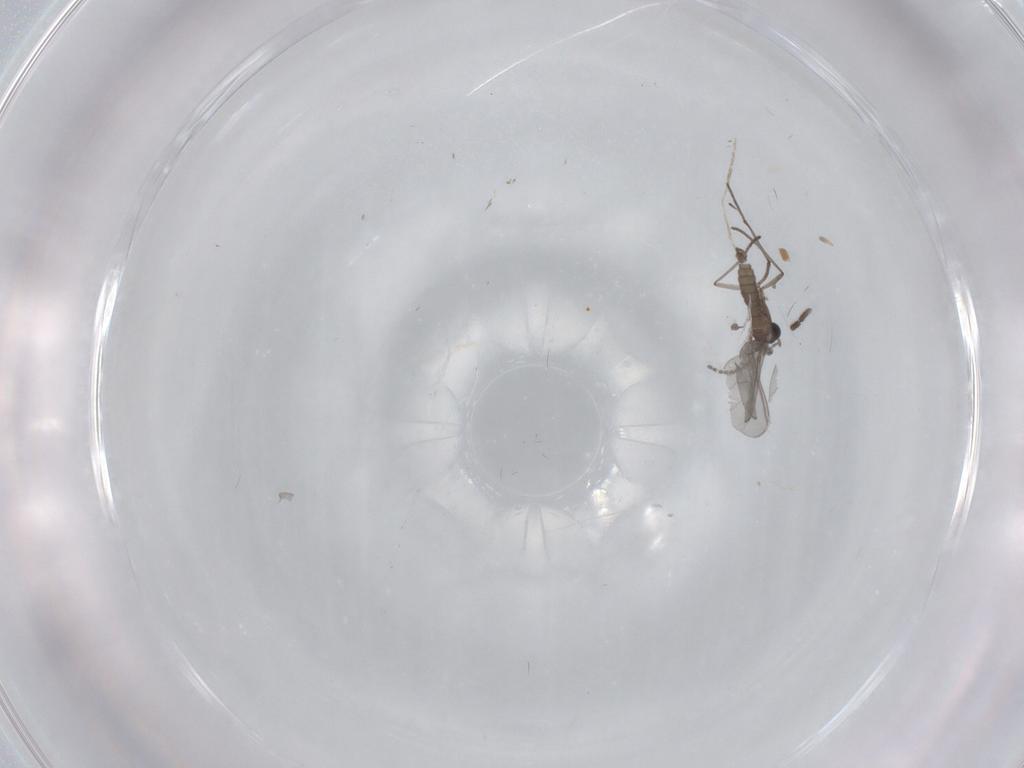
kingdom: Animalia
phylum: Arthropoda
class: Insecta
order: Diptera
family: Sciaridae
